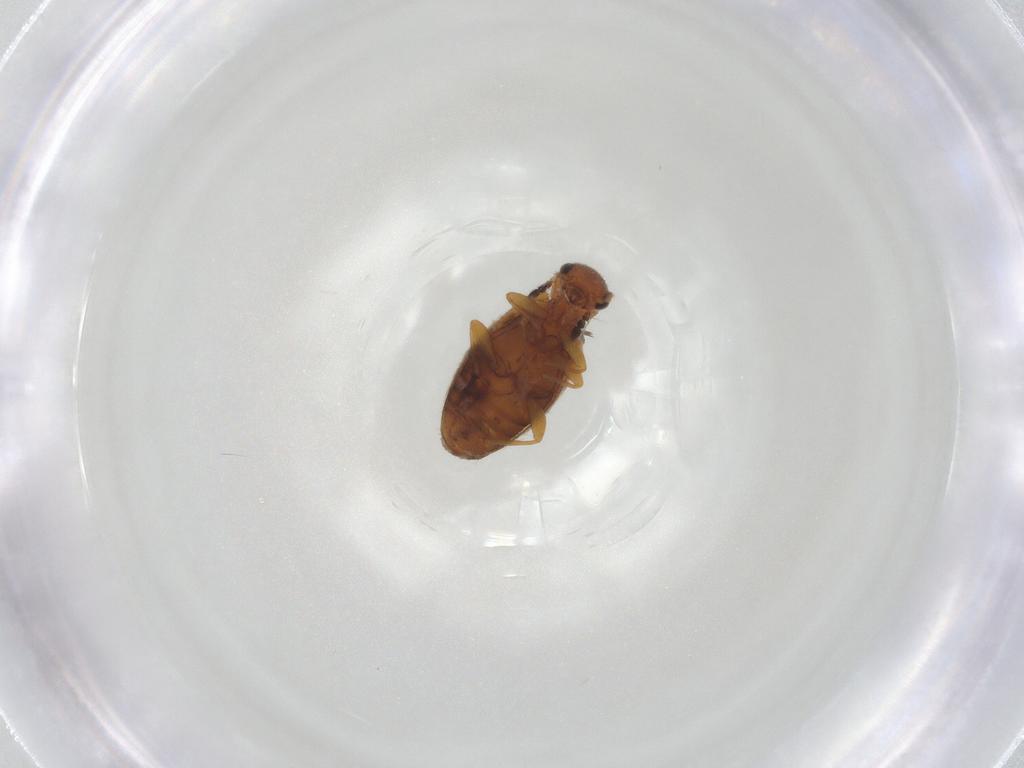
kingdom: Animalia
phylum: Arthropoda
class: Insecta
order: Coleoptera
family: Anthicidae
